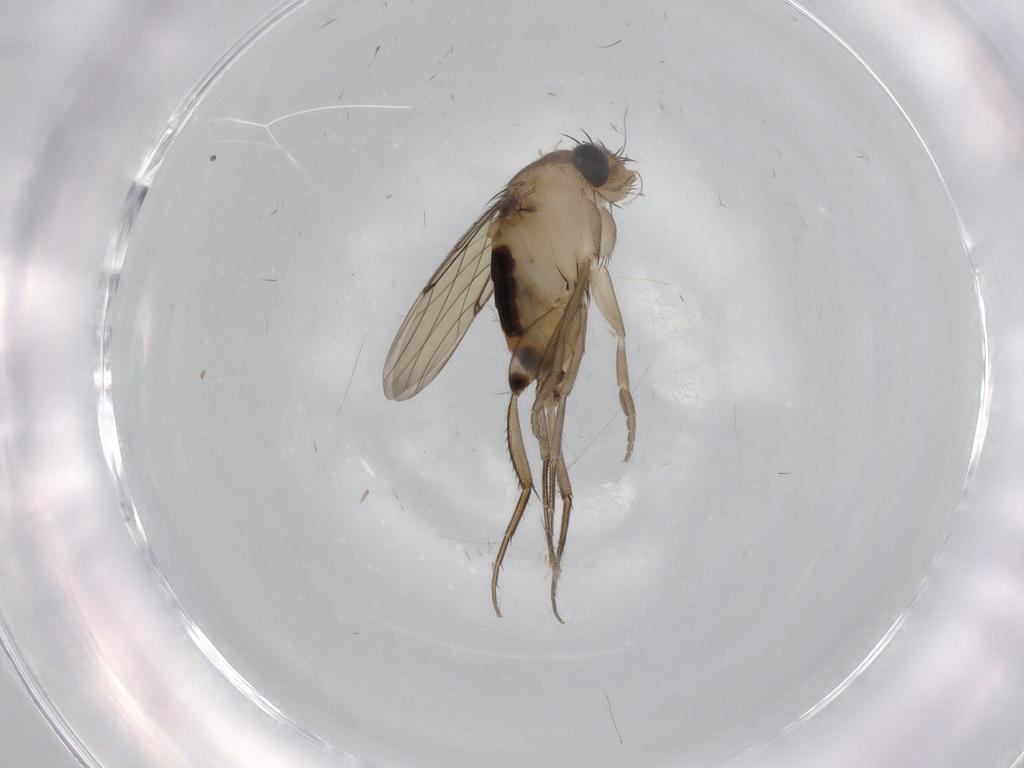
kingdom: Animalia
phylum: Arthropoda
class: Insecta
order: Diptera
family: Phoridae
